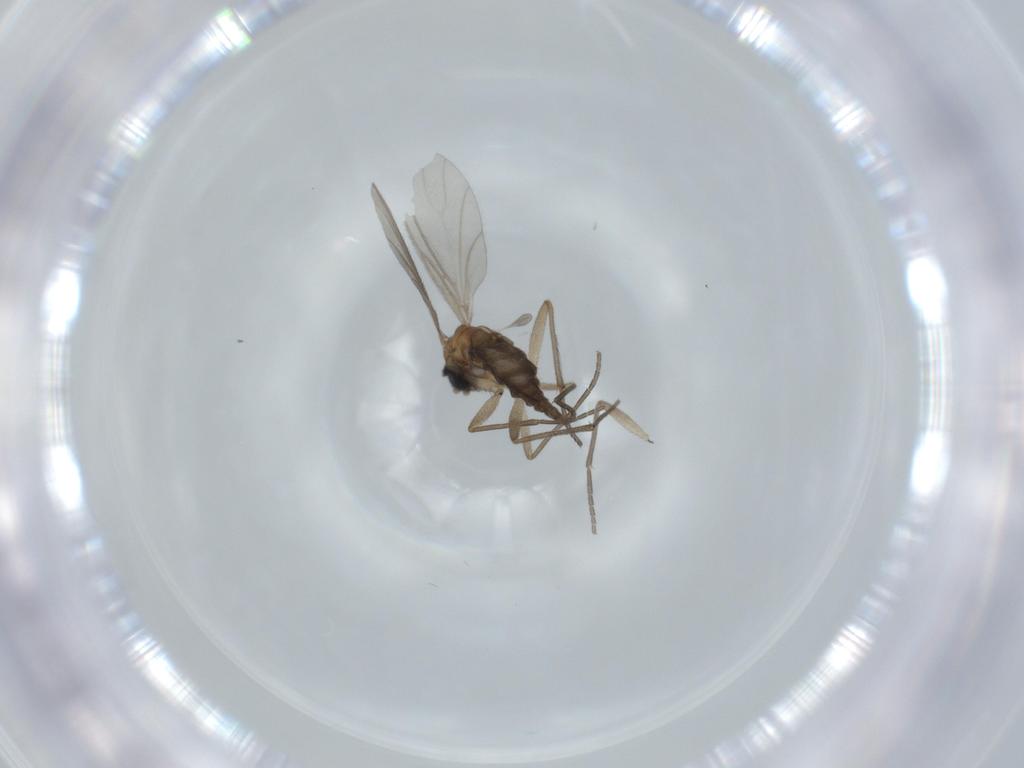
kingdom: Animalia
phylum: Arthropoda
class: Insecta
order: Diptera
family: Sciaridae
